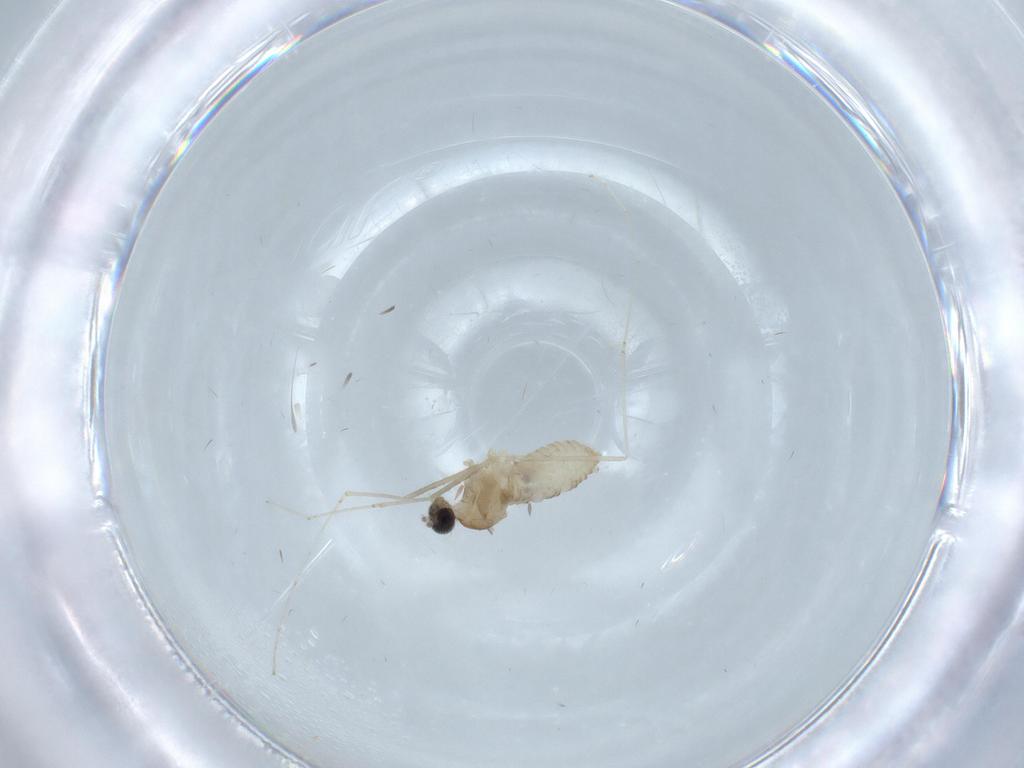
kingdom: Animalia
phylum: Arthropoda
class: Insecta
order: Diptera
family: Cecidomyiidae
